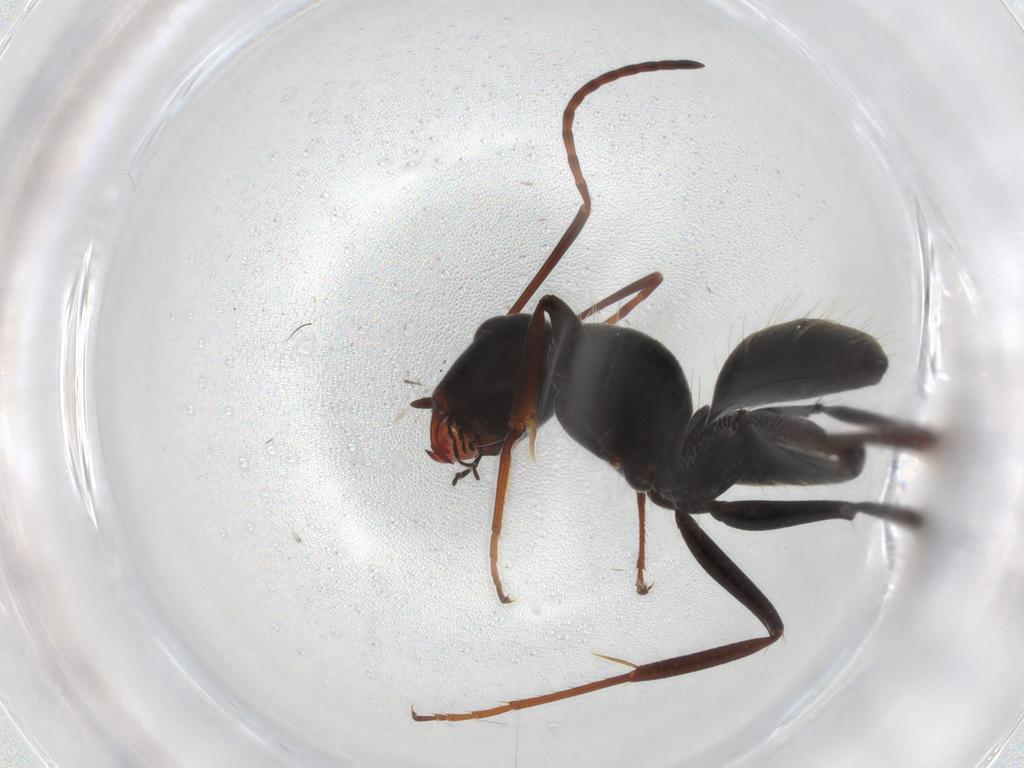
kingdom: Animalia
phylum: Arthropoda
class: Insecta
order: Hymenoptera
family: Formicidae
